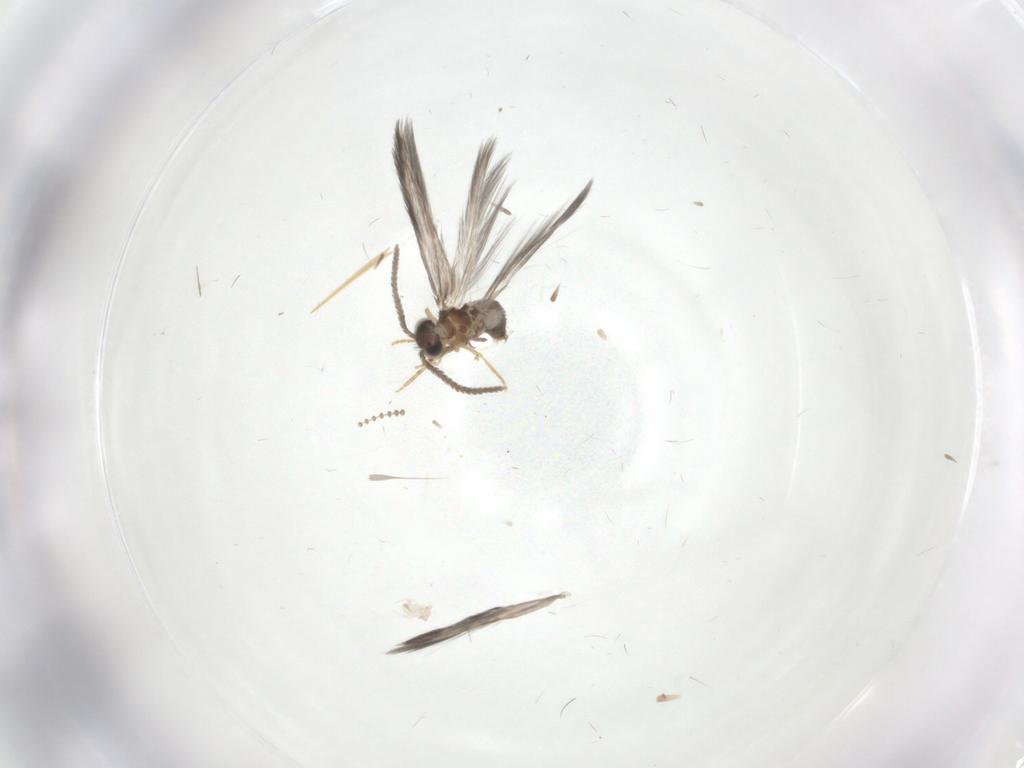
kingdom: Animalia
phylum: Arthropoda
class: Insecta
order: Trichoptera
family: Hydroptilidae
